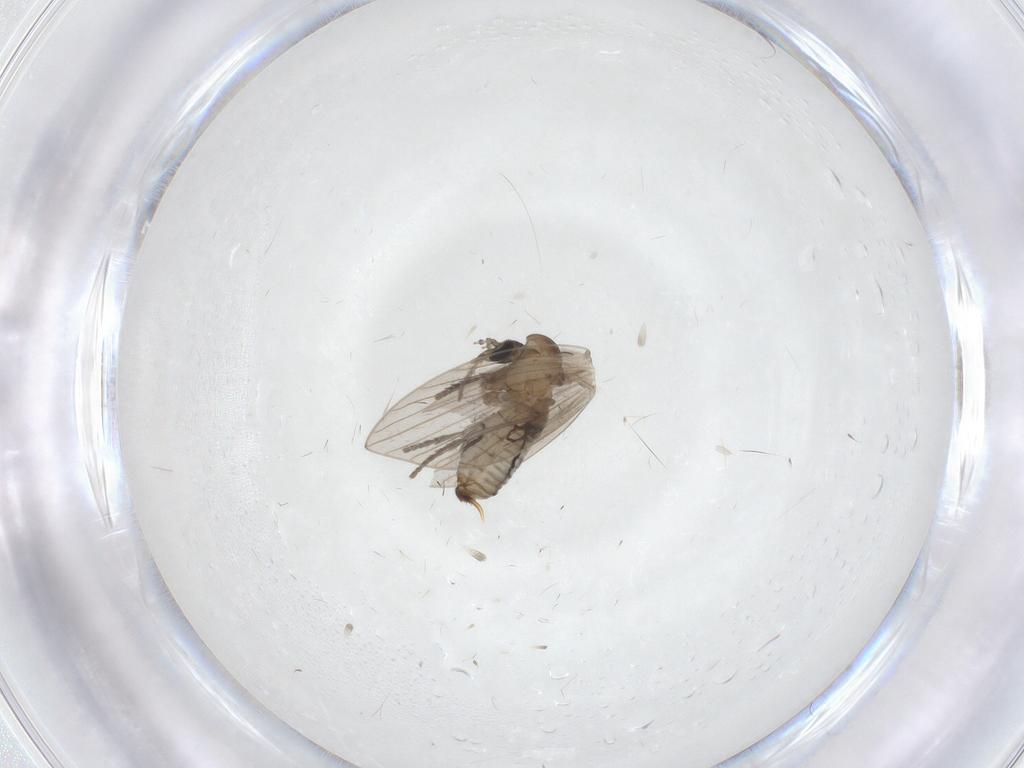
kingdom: Animalia
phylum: Arthropoda
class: Insecta
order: Diptera
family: Psychodidae
